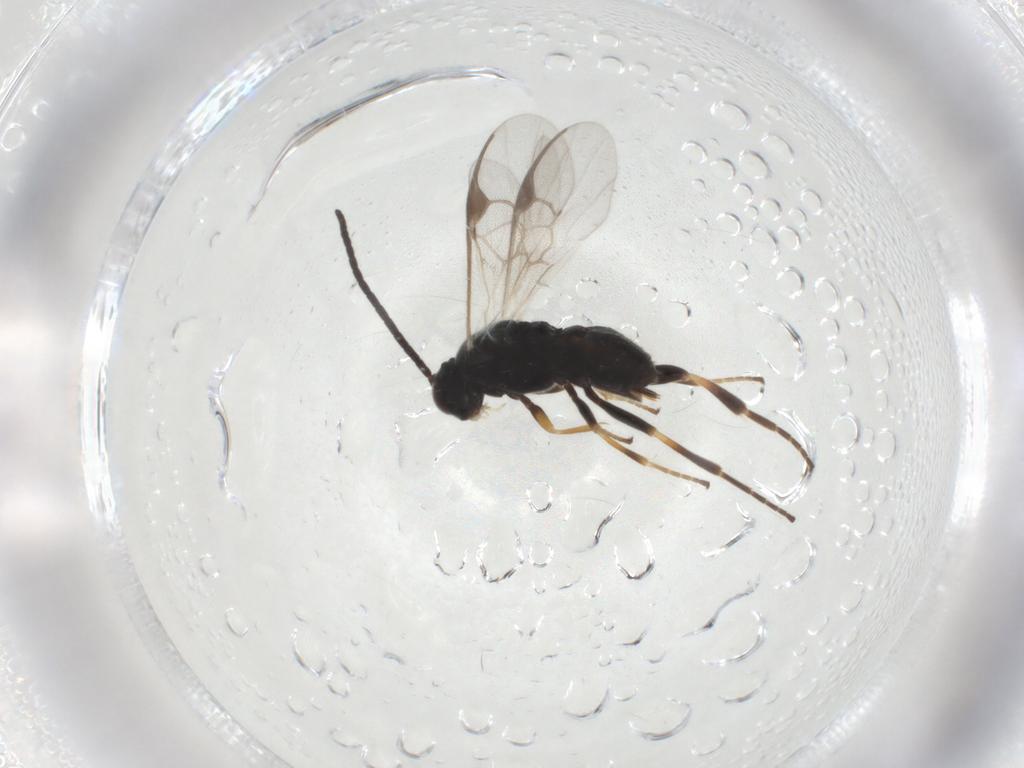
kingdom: Animalia
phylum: Arthropoda
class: Insecta
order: Hymenoptera
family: Braconidae
